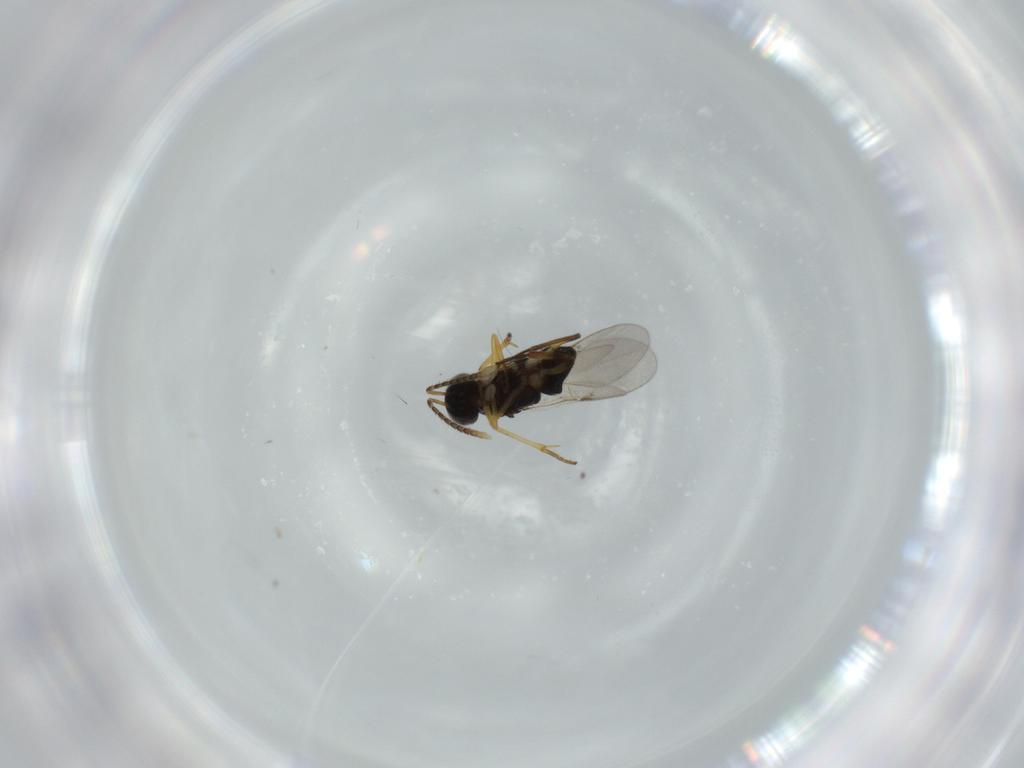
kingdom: Animalia
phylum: Arthropoda
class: Insecta
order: Hymenoptera
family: Encyrtidae
